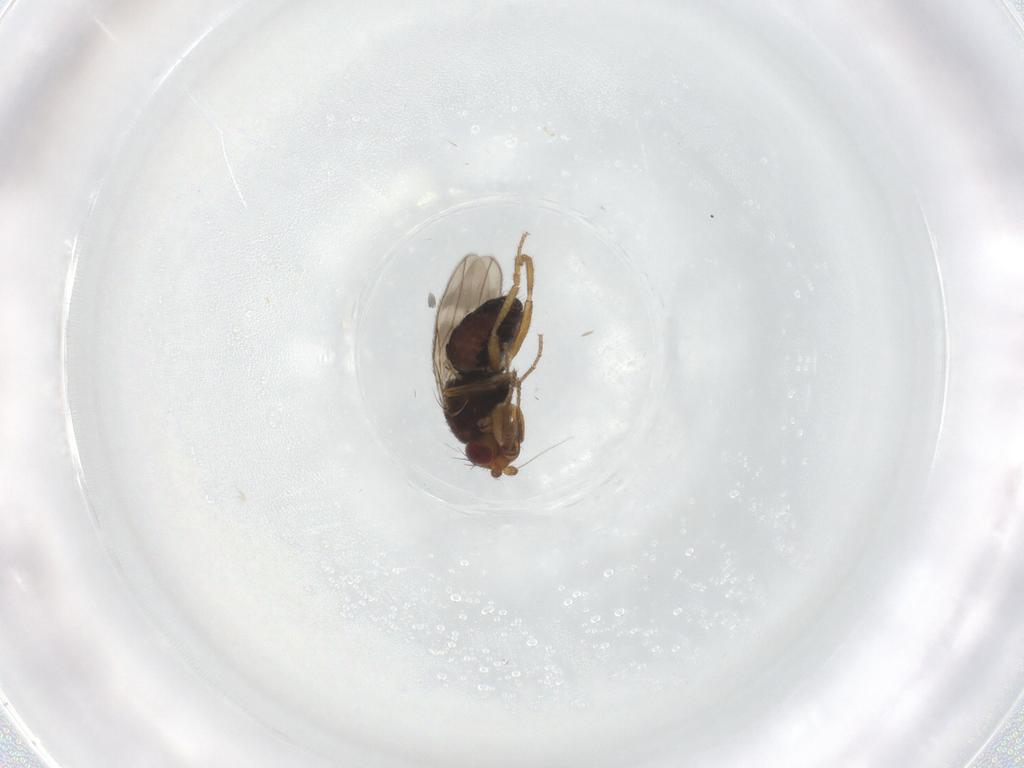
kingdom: Animalia
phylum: Arthropoda
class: Insecta
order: Diptera
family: Sphaeroceridae
